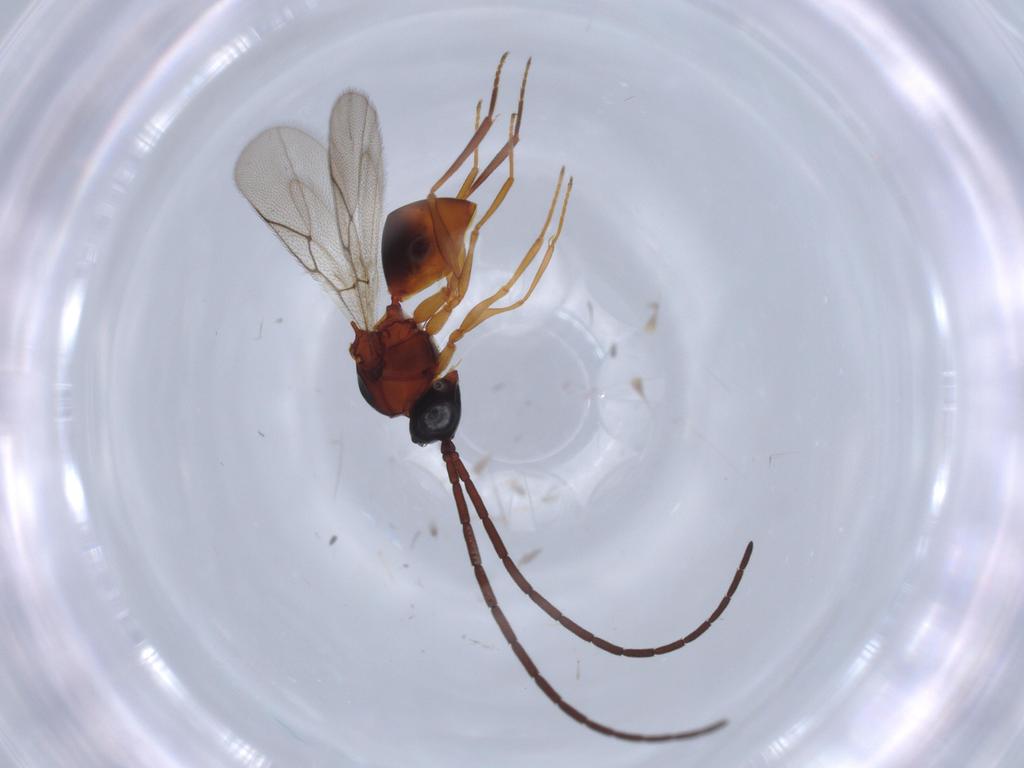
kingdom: Animalia
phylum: Arthropoda
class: Insecta
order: Hymenoptera
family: Figitidae
